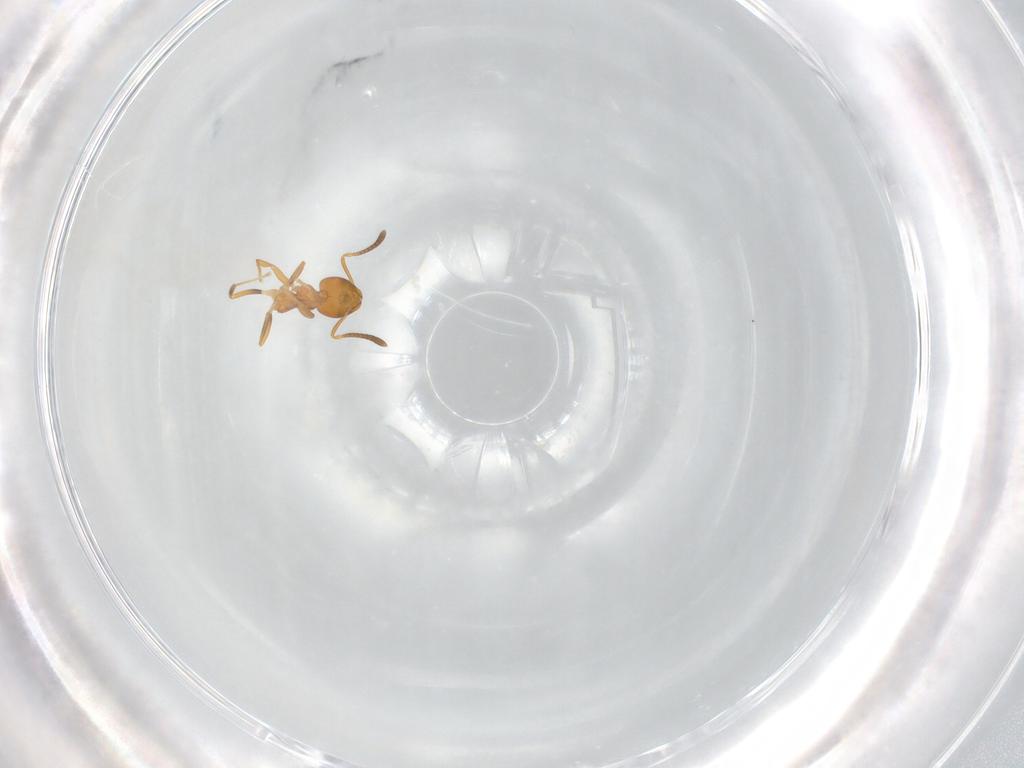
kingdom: Animalia
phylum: Arthropoda
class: Insecta
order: Hymenoptera
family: Formicidae
